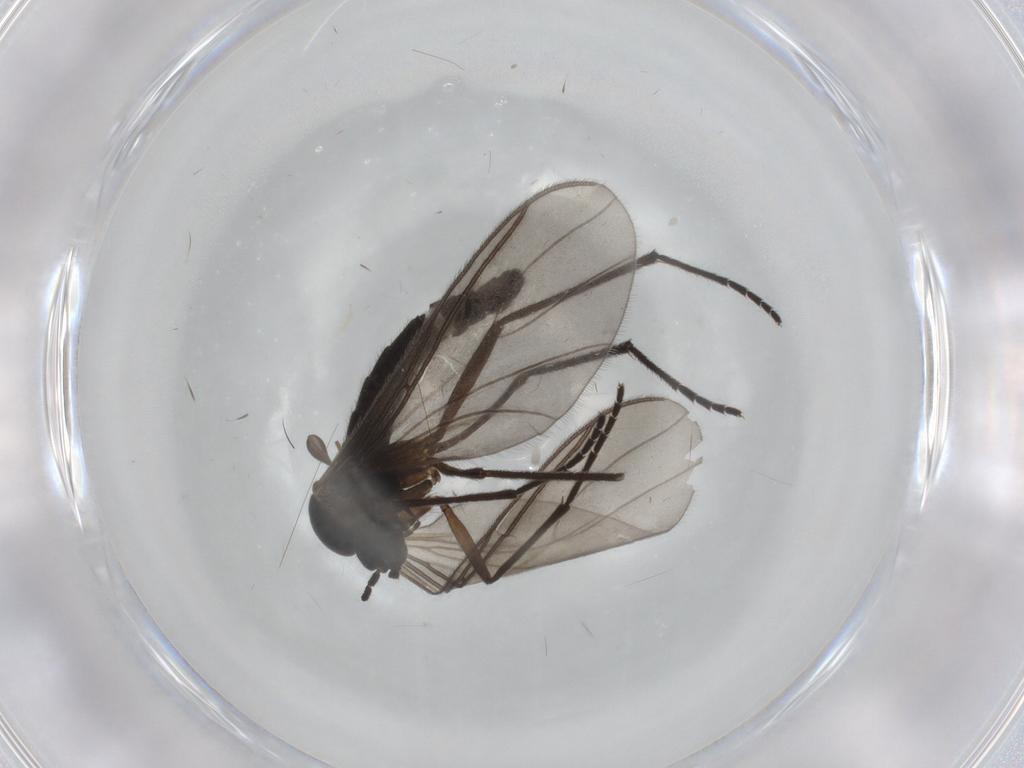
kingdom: Animalia
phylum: Arthropoda
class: Insecta
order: Diptera
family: Sciaridae
